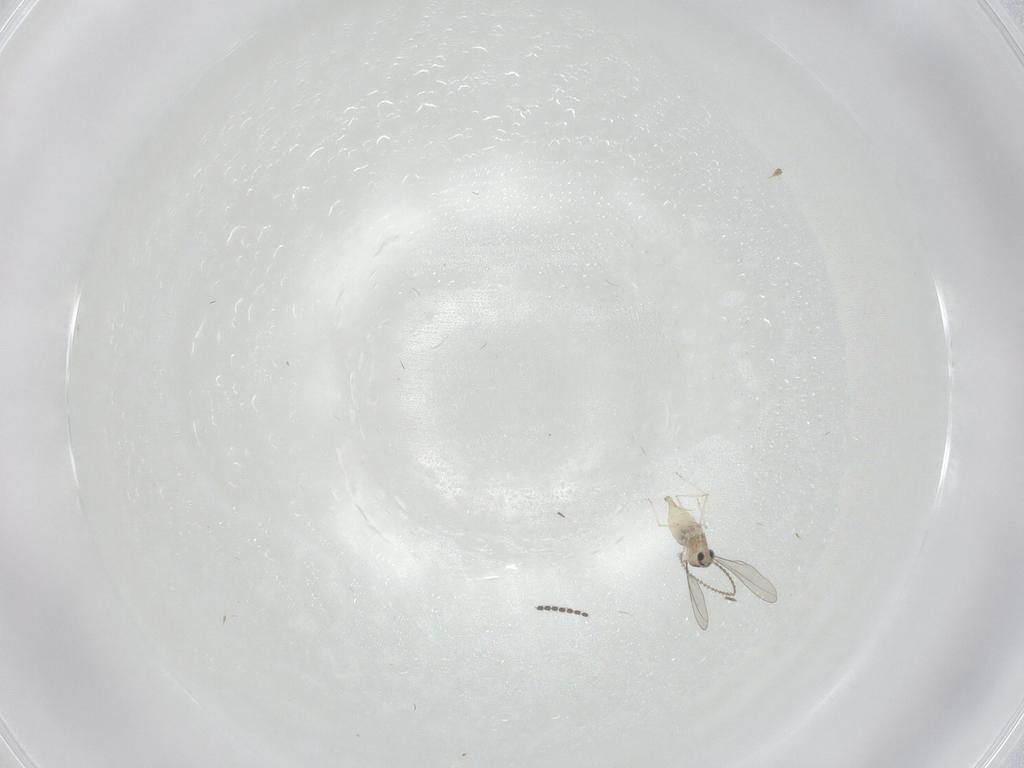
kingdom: Animalia
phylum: Arthropoda
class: Insecta
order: Diptera
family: Cecidomyiidae
